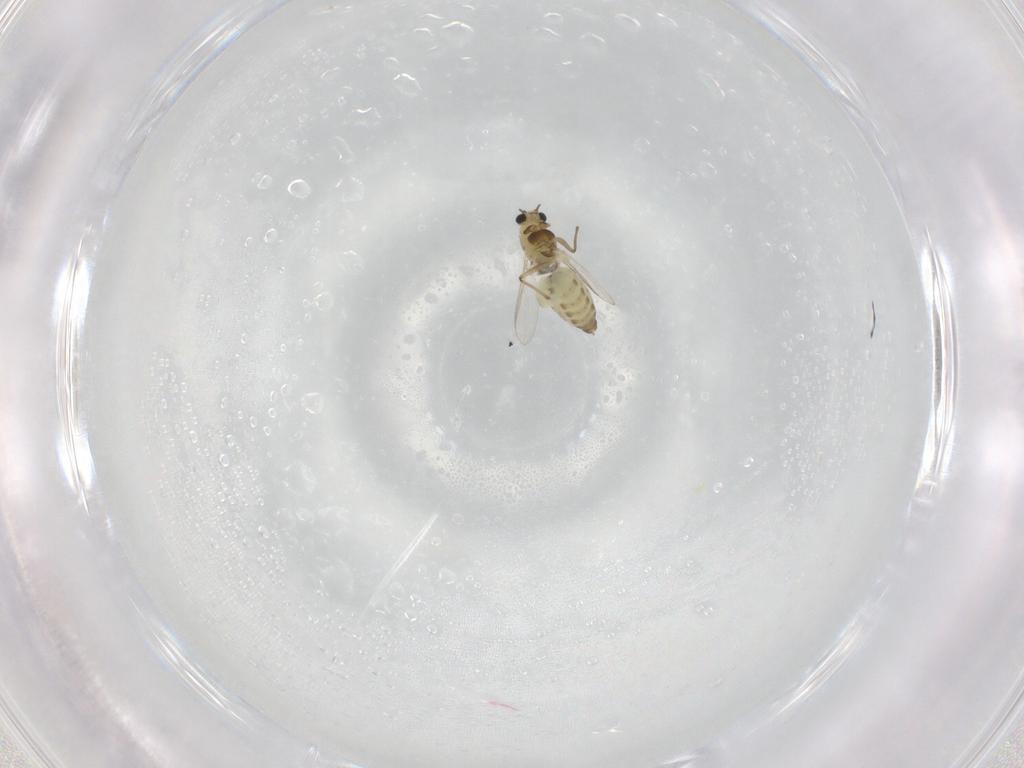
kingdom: Animalia
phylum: Arthropoda
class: Insecta
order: Diptera
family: Chironomidae
